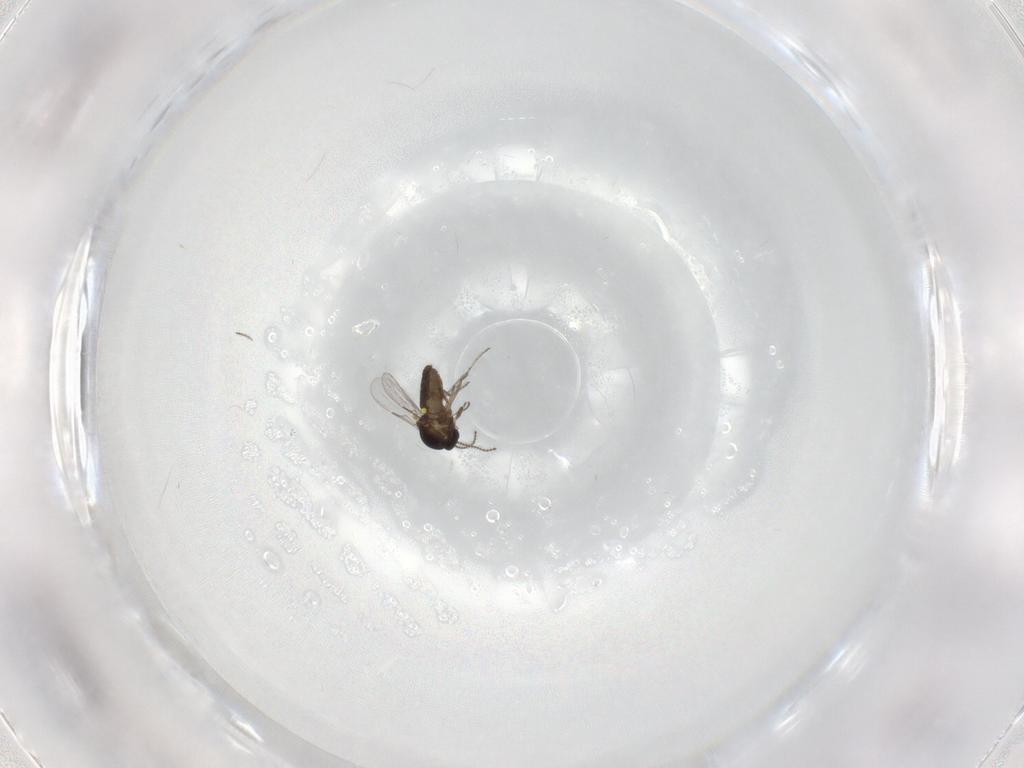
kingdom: Animalia
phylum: Arthropoda
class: Insecta
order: Diptera
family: Ceratopogonidae
